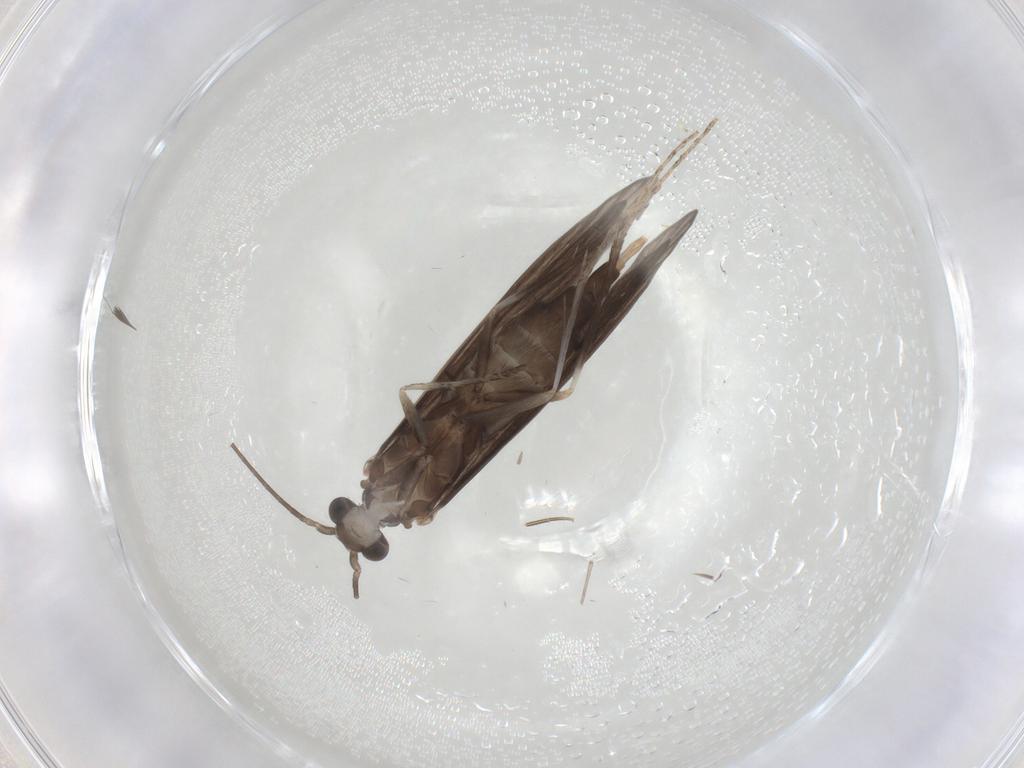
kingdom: Animalia
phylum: Arthropoda
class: Insecta
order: Trichoptera
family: Xiphocentronidae
